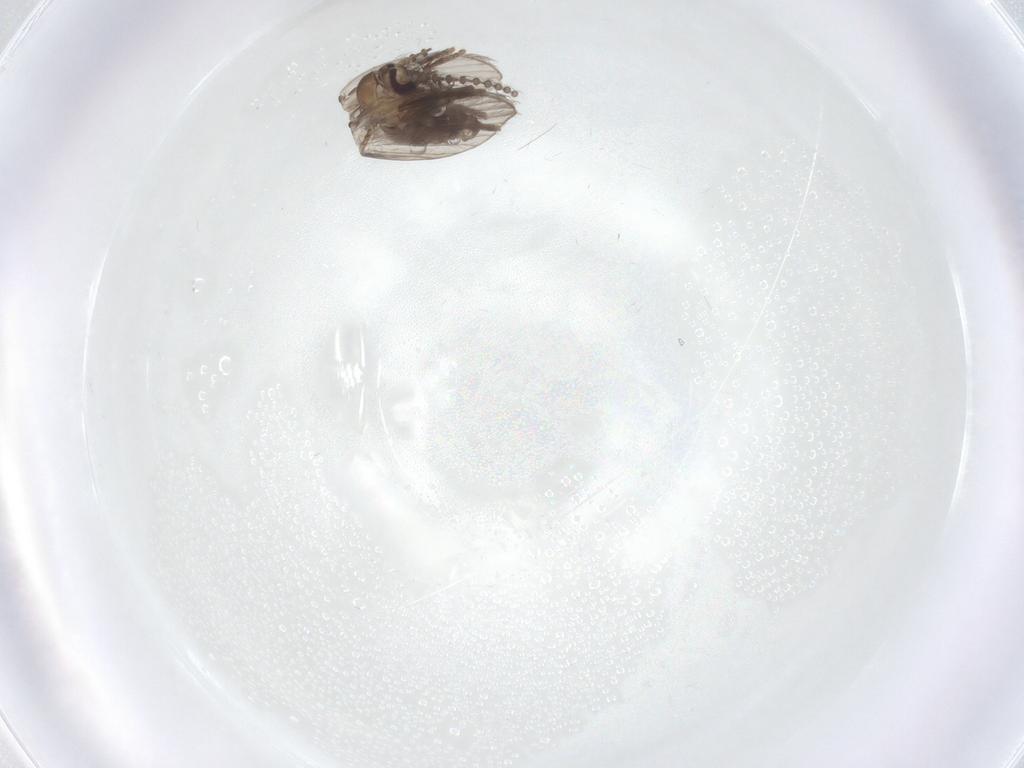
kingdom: Animalia
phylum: Arthropoda
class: Insecta
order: Diptera
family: Psychodidae
